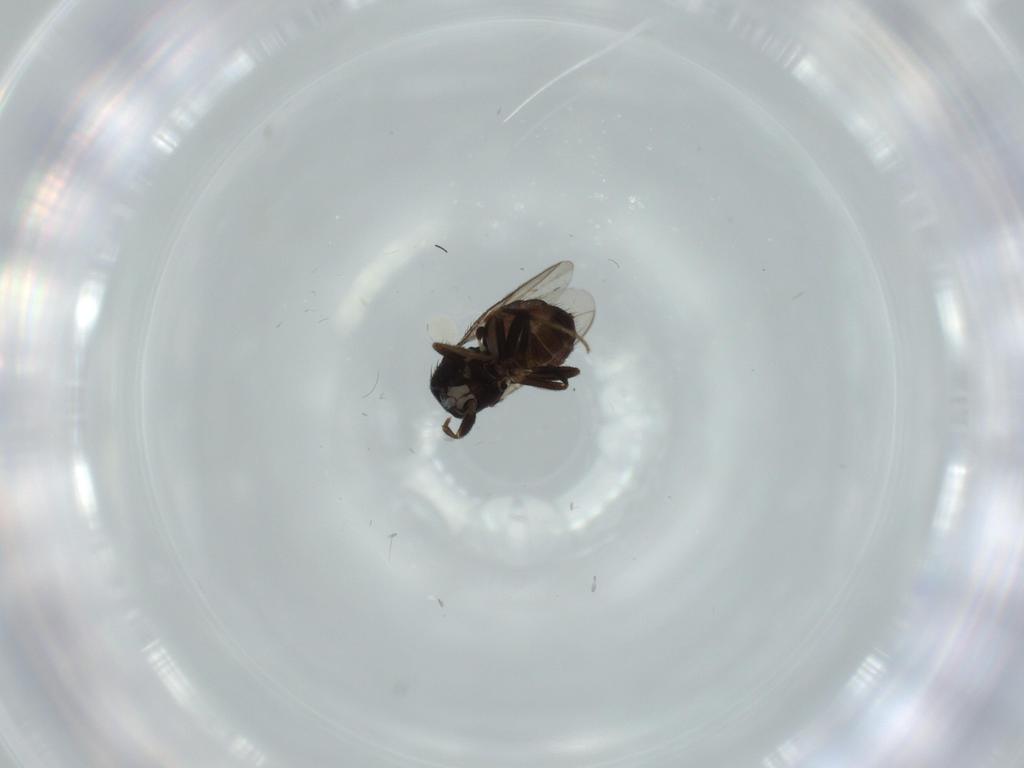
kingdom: Animalia
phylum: Arthropoda
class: Insecta
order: Diptera
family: Sphaeroceridae
